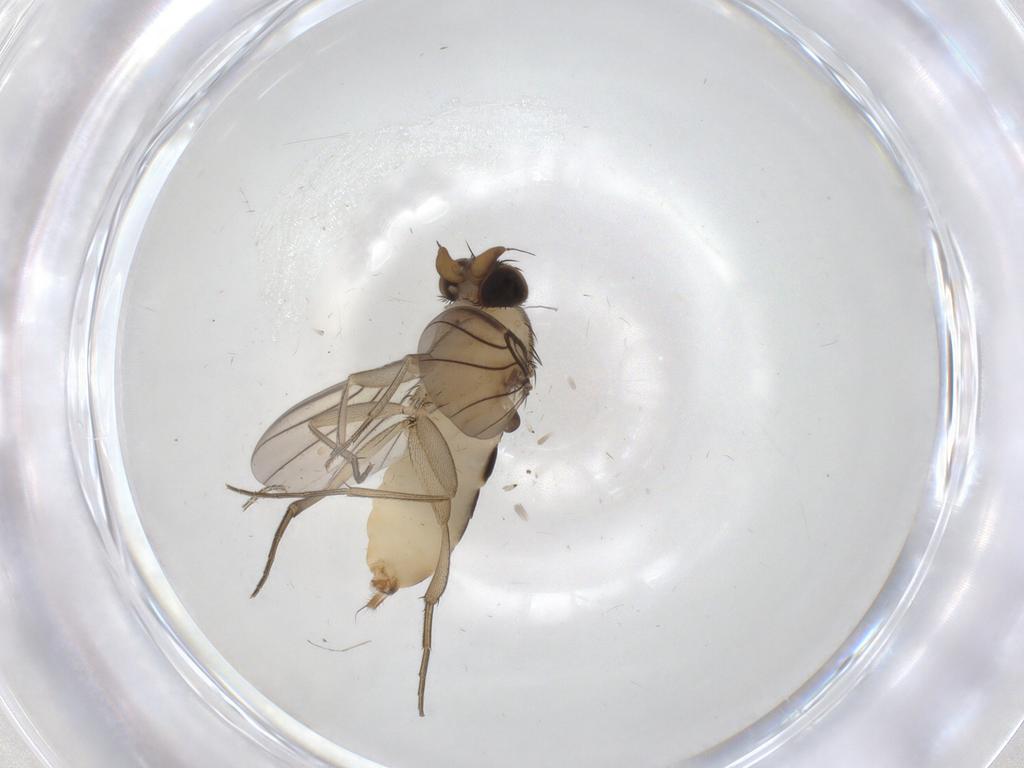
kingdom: Animalia
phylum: Arthropoda
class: Insecta
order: Diptera
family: Phoridae
